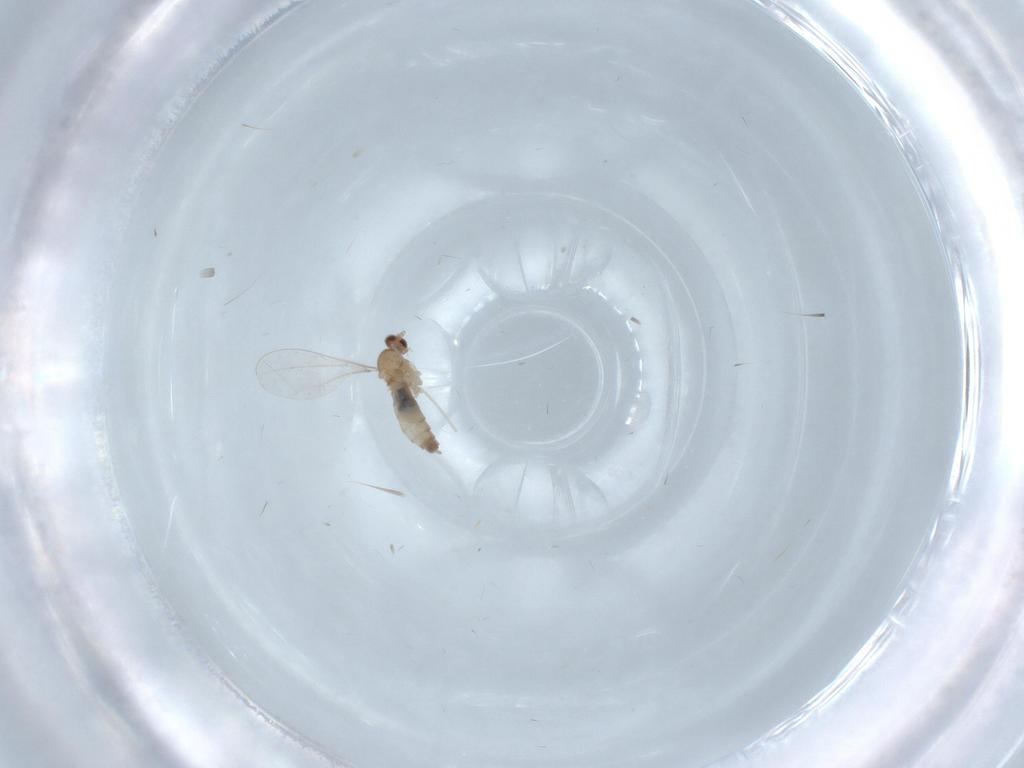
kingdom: Animalia
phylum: Arthropoda
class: Insecta
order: Diptera
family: Cecidomyiidae
